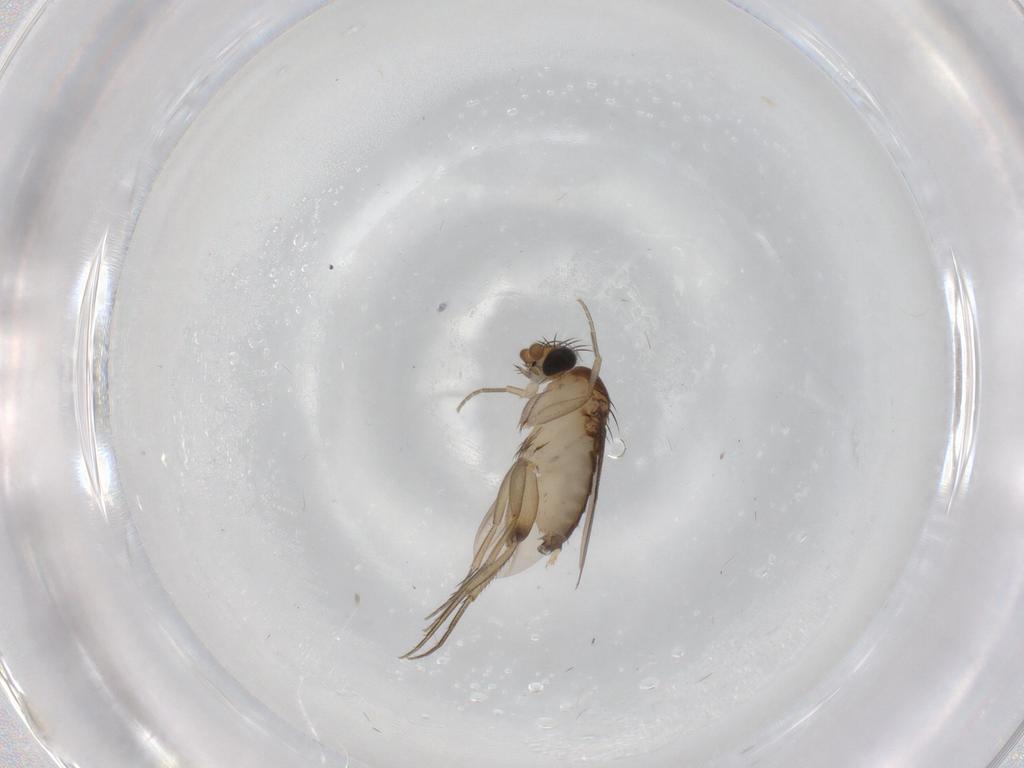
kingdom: Animalia
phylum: Arthropoda
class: Insecta
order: Diptera
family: Phoridae
